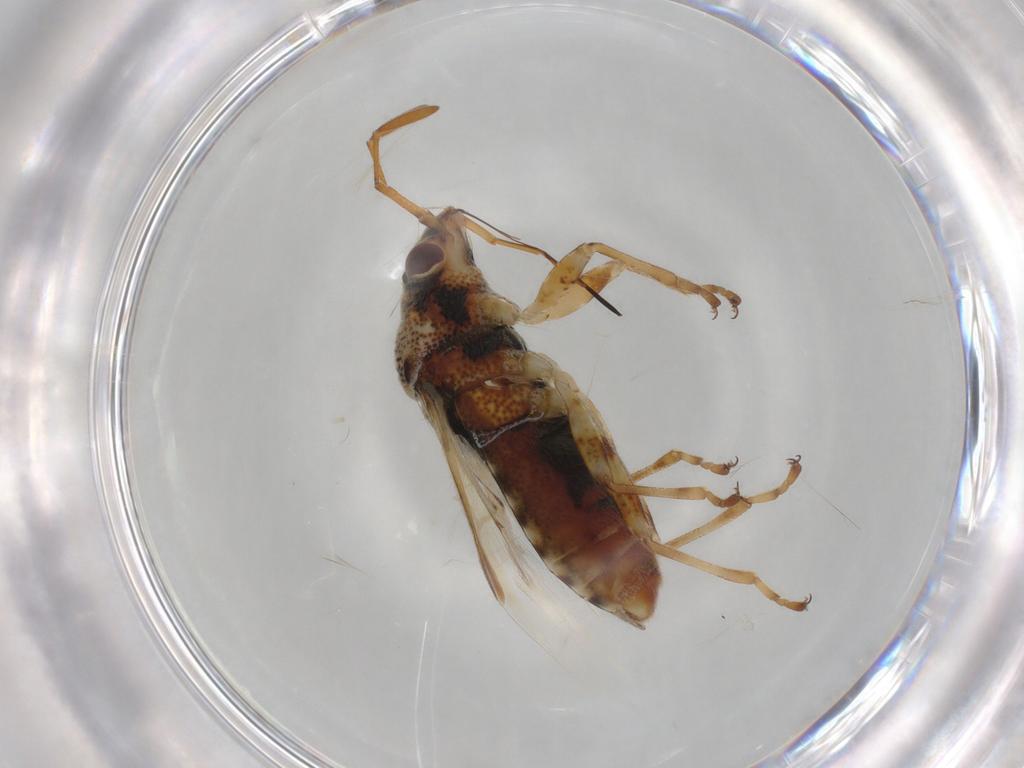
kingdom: Animalia
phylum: Arthropoda
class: Insecta
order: Hemiptera
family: Lygaeidae
